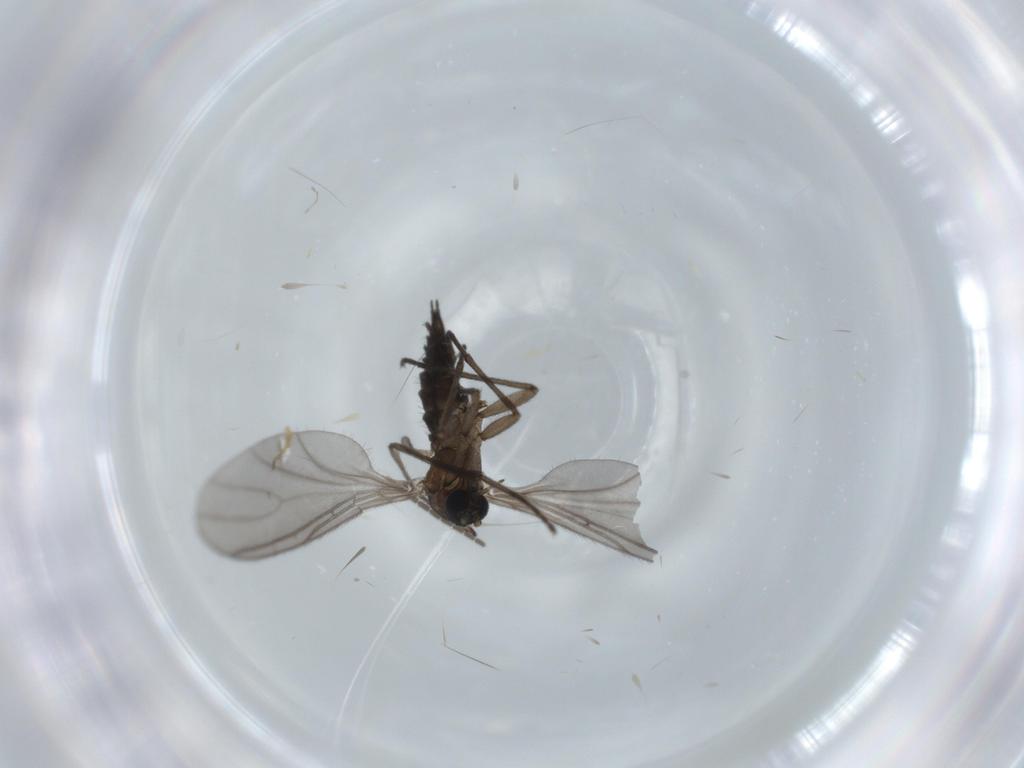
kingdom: Animalia
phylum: Arthropoda
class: Insecta
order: Diptera
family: Sciaridae
